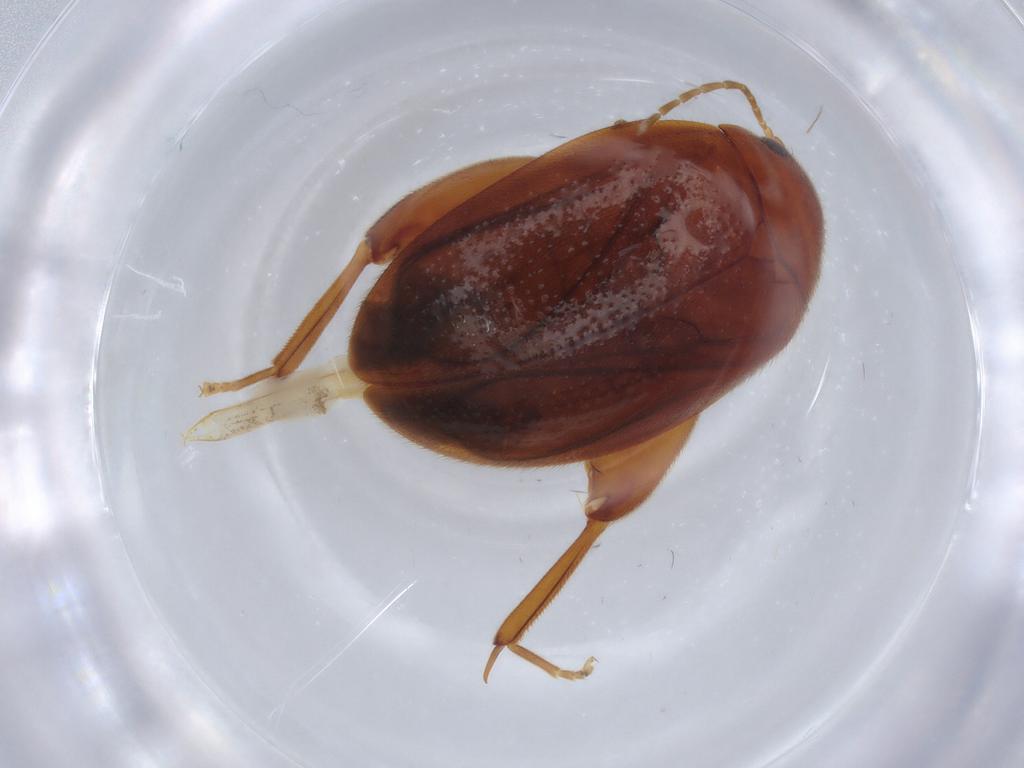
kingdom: Animalia
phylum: Arthropoda
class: Insecta
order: Coleoptera
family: Scirtidae
